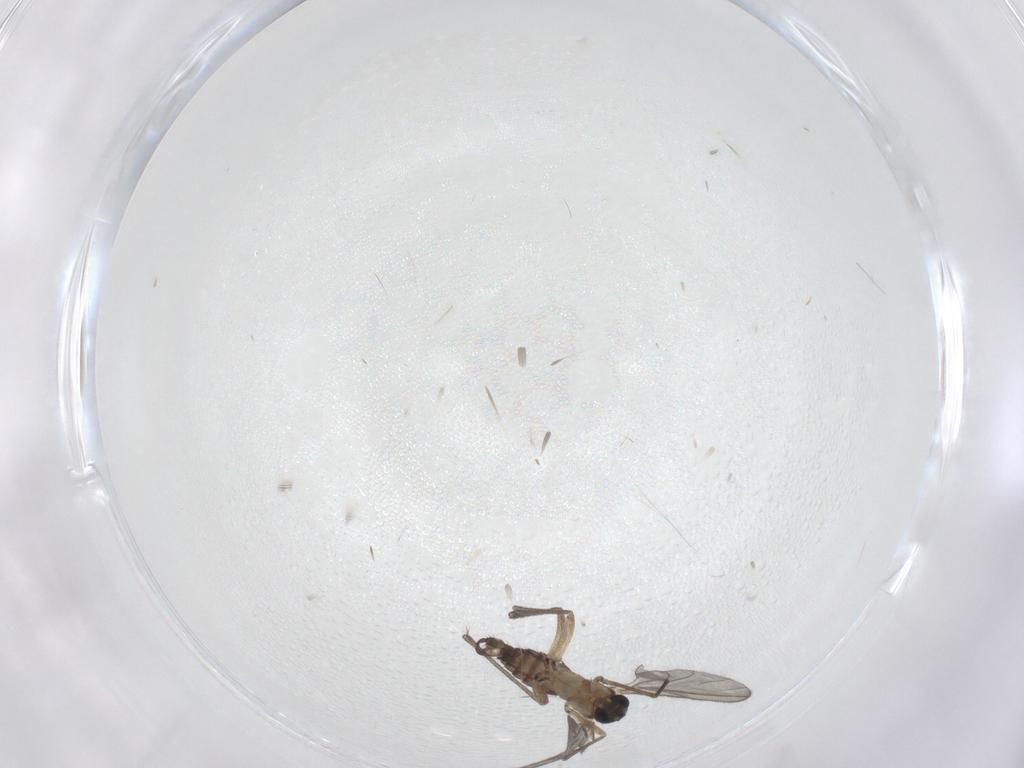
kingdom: Animalia
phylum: Arthropoda
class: Insecta
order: Diptera
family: Sciaridae
